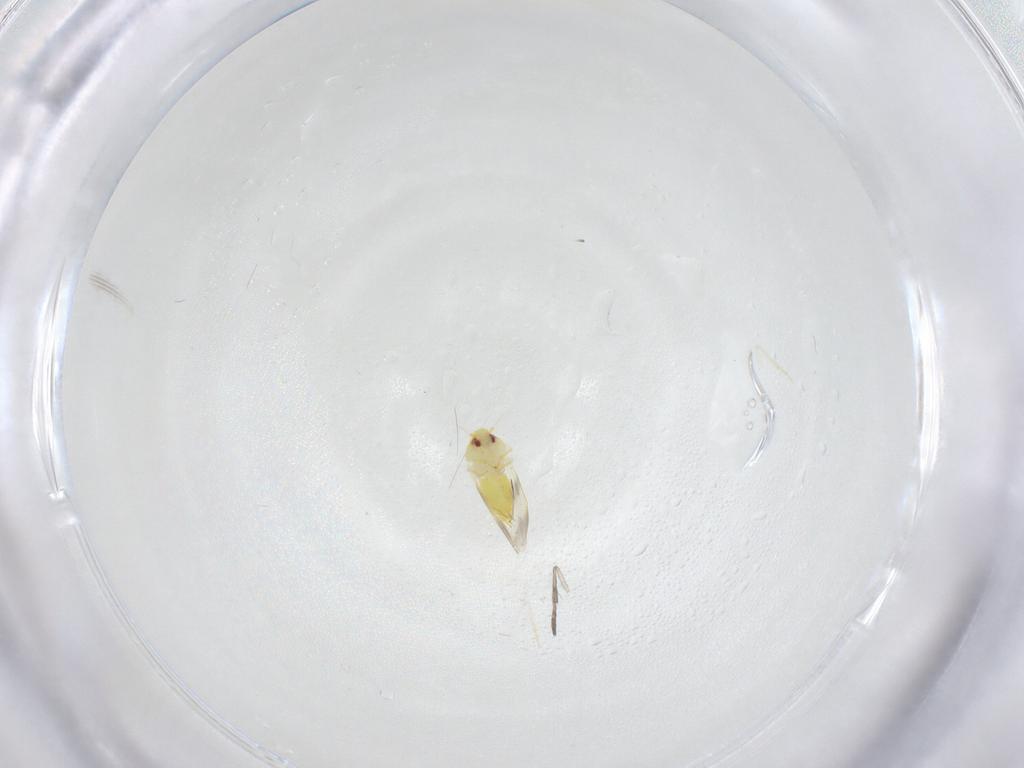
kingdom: Animalia
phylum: Arthropoda
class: Insecta
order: Hemiptera
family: Aleyrodidae
